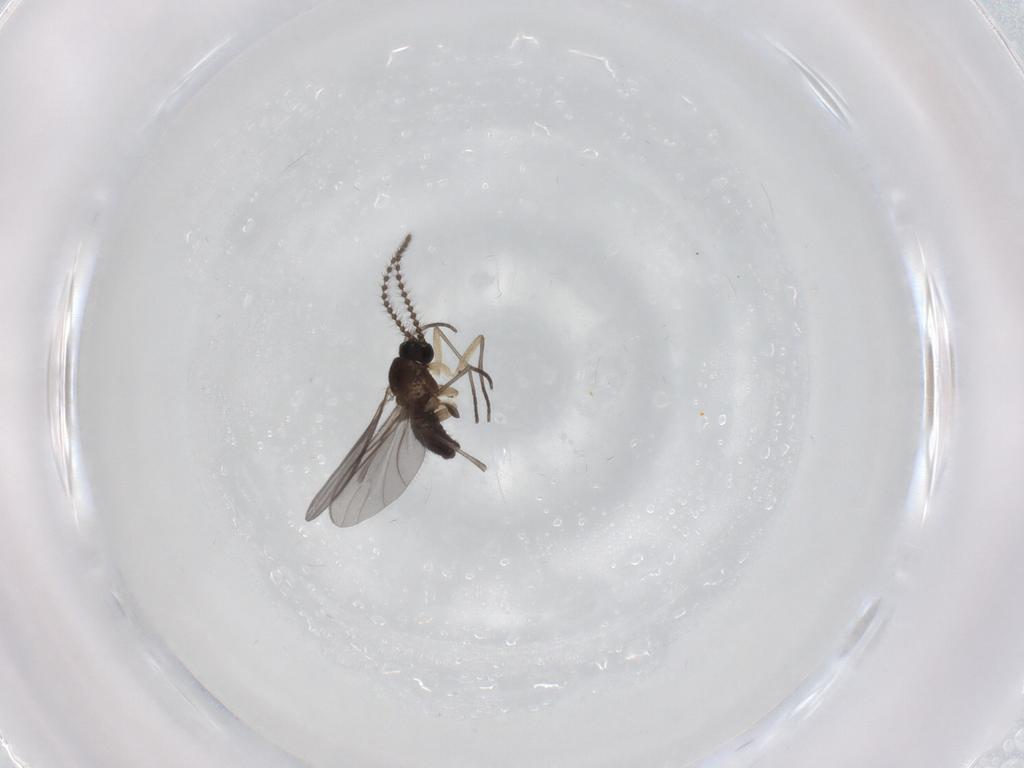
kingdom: Animalia
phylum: Arthropoda
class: Insecta
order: Diptera
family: Sciaridae
